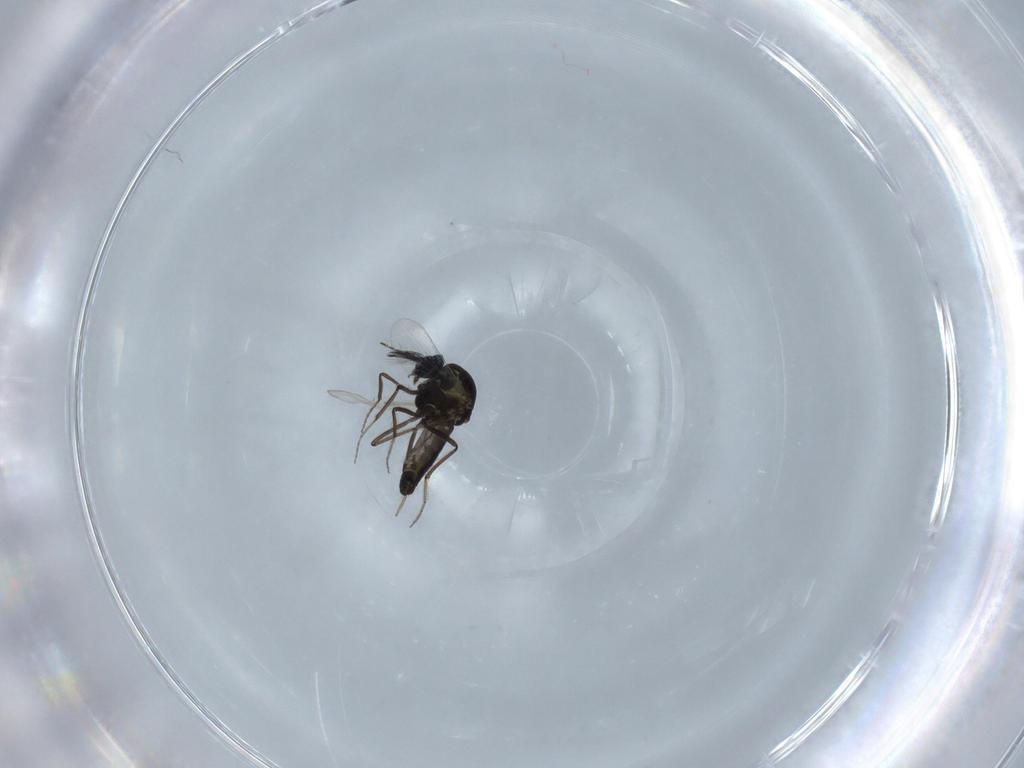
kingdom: Animalia
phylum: Arthropoda
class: Insecta
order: Diptera
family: Ceratopogonidae
